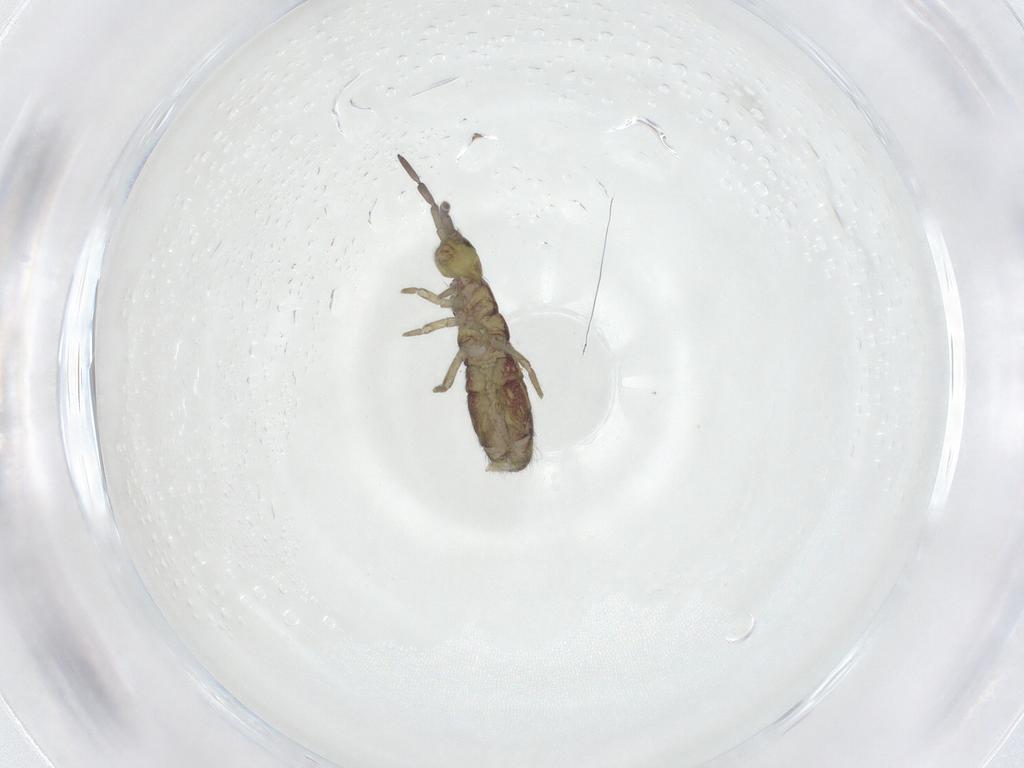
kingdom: Animalia
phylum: Arthropoda
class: Collembola
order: Entomobryomorpha
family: Isotomidae
